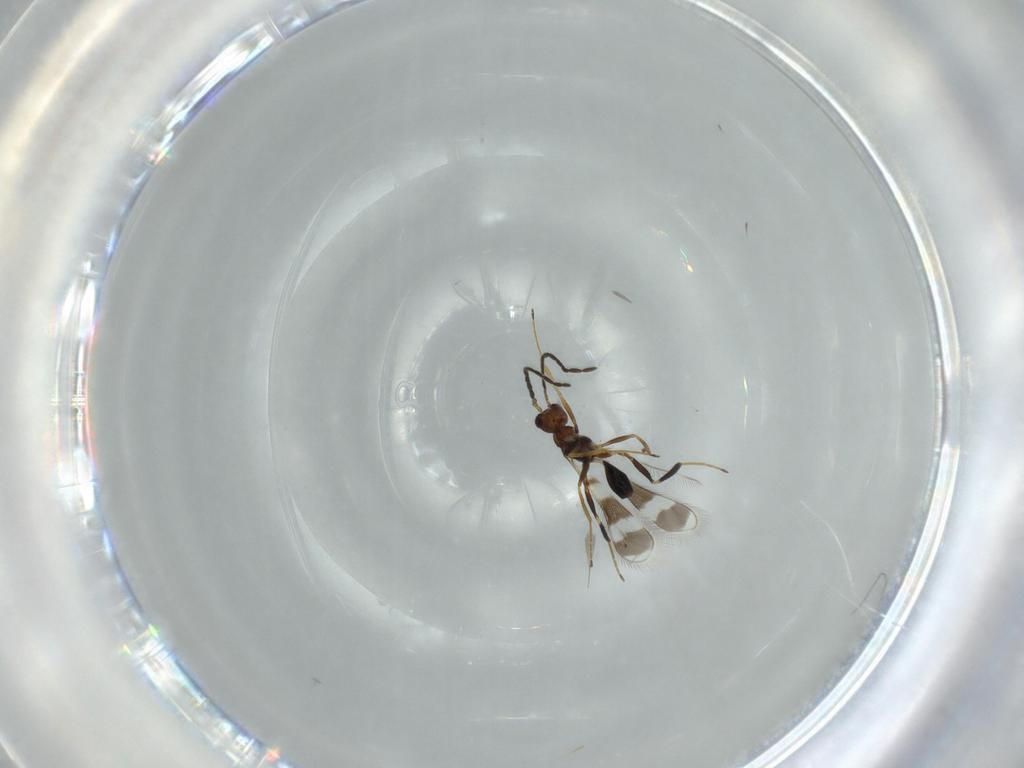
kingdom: Animalia
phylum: Arthropoda
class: Insecta
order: Hymenoptera
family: Mymaridae
